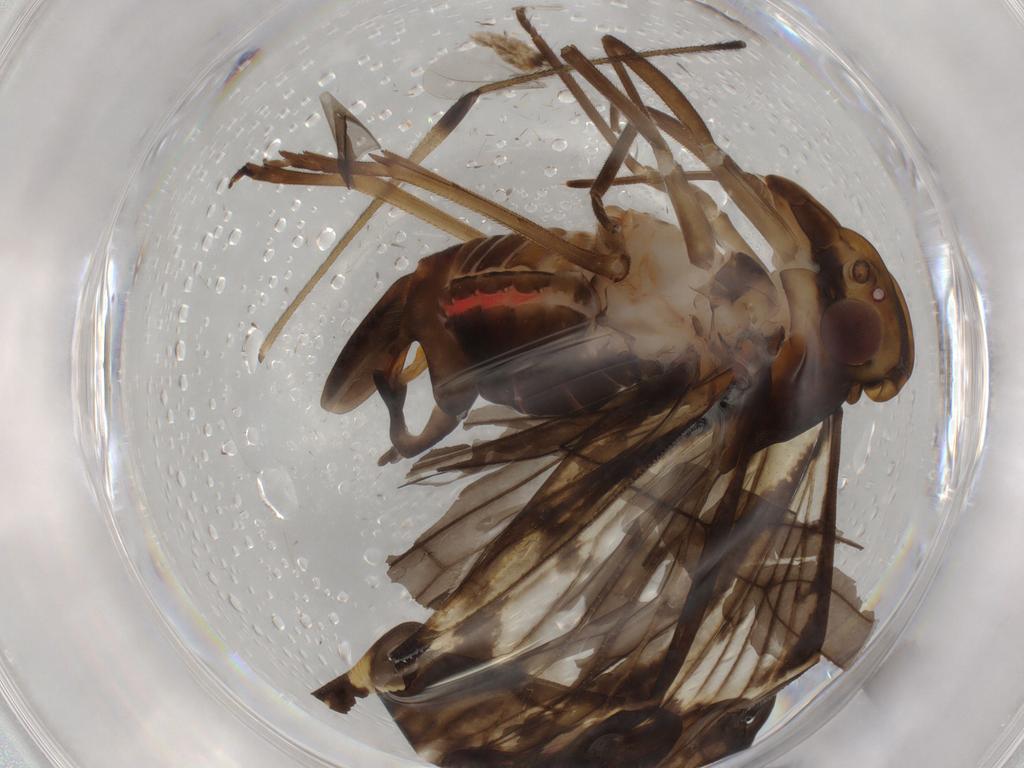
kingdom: Animalia
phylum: Arthropoda
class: Insecta
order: Hemiptera
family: Cixiidae
